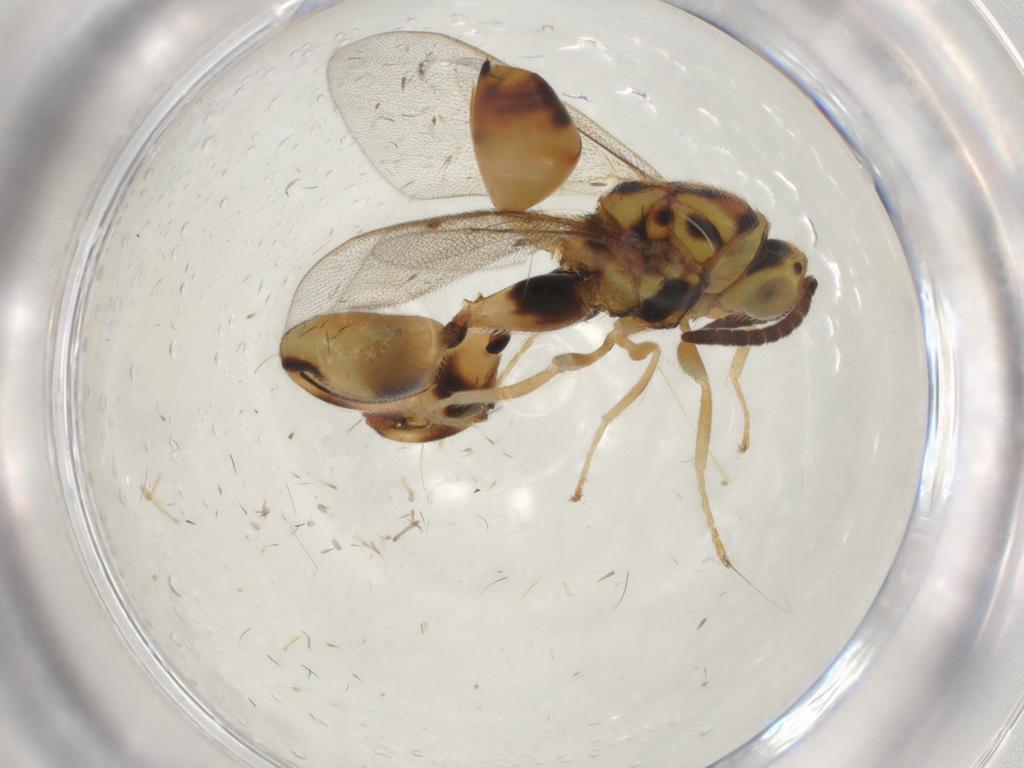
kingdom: Animalia
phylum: Arthropoda
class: Insecta
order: Hymenoptera
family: Chalcididae
